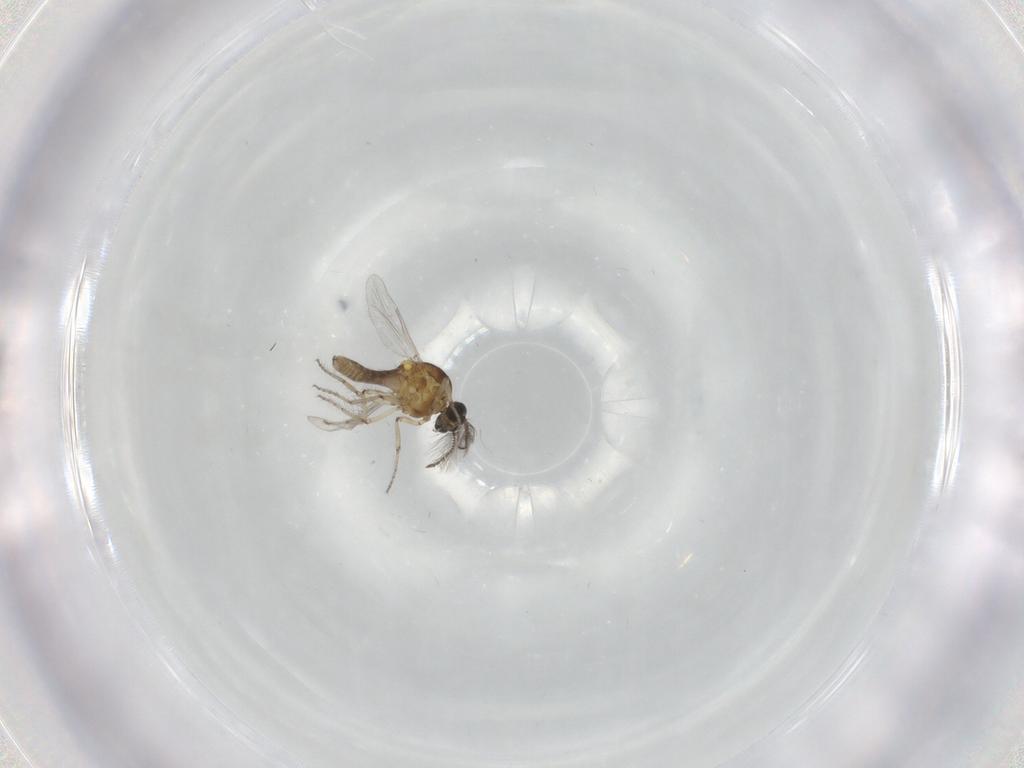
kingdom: Animalia
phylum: Arthropoda
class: Insecta
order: Diptera
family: Ceratopogonidae
